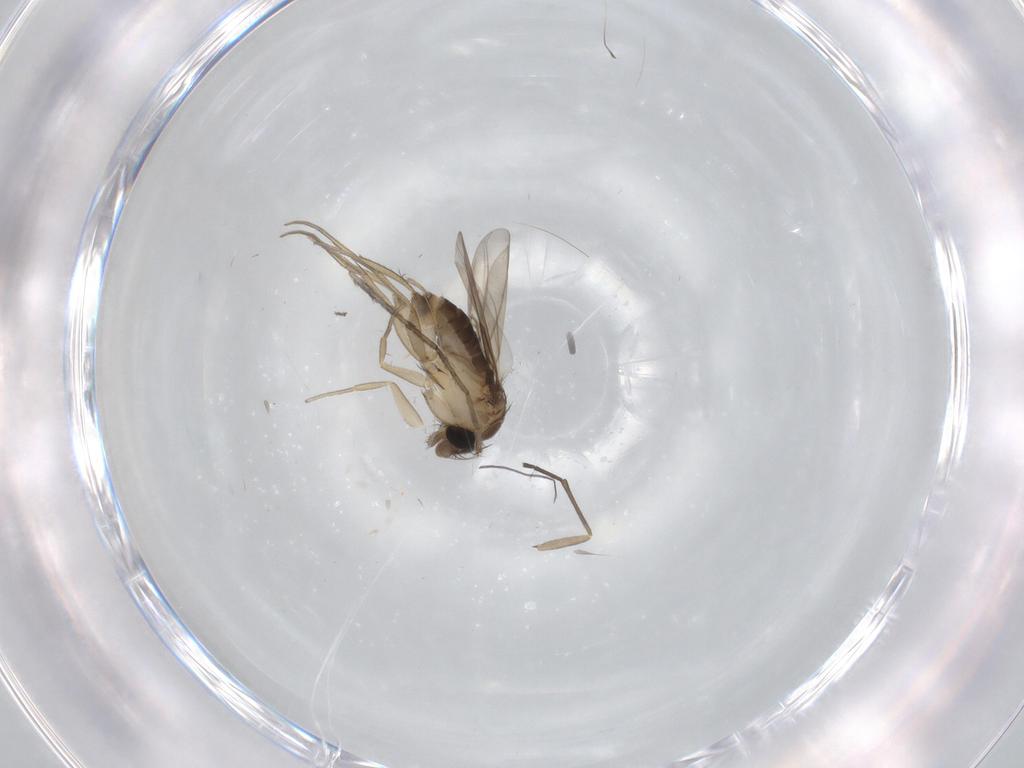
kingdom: Animalia
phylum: Arthropoda
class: Insecta
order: Diptera
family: Phoridae
